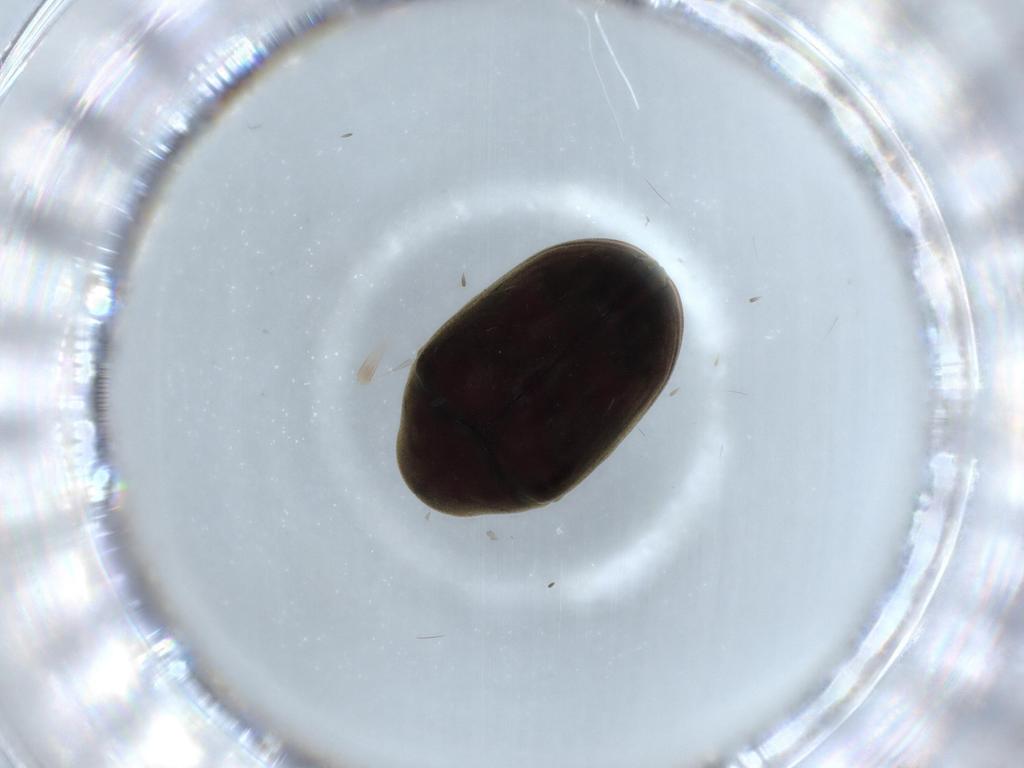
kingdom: Animalia
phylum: Arthropoda
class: Insecta
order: Coleoptera
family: Ptinidae
